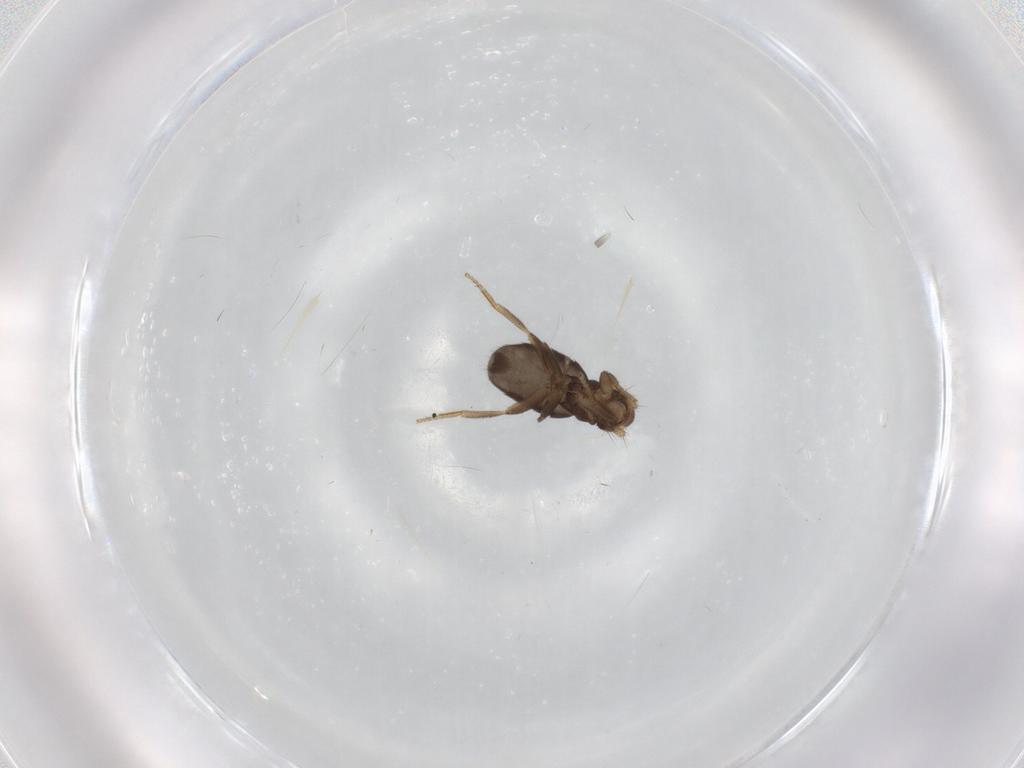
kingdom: Animalia
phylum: Arthropoda
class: Insecta
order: Diptera
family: Phoridae
